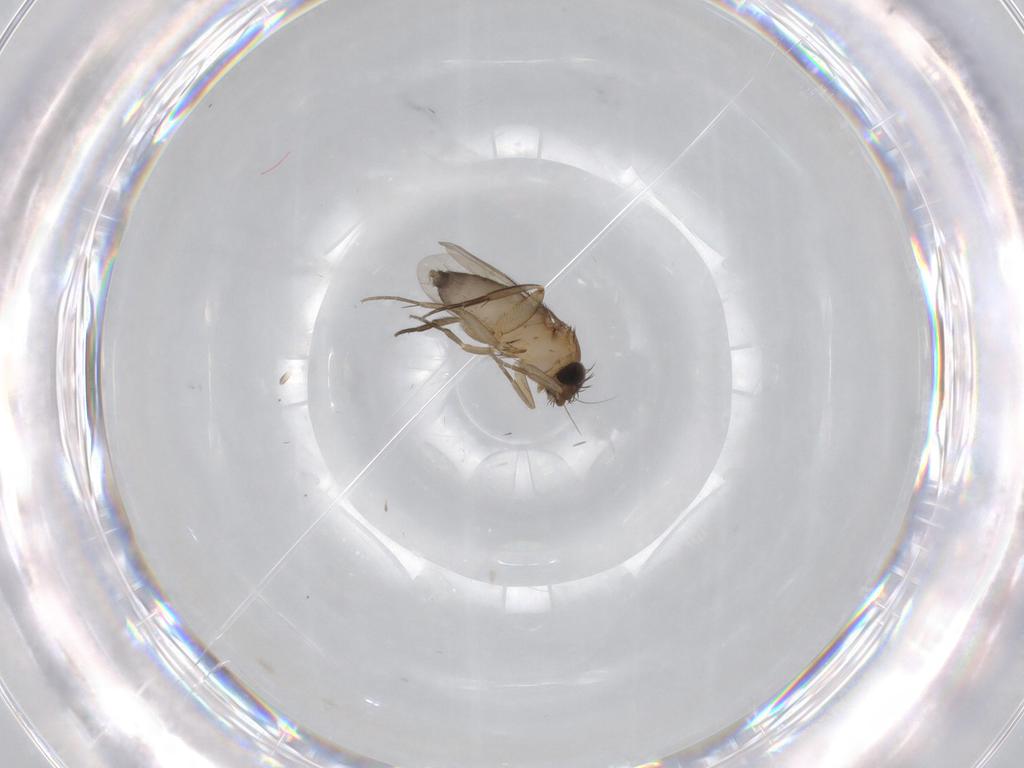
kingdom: Animalia
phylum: Arthropoda
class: Insecta
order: Diptera
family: Phoridae
